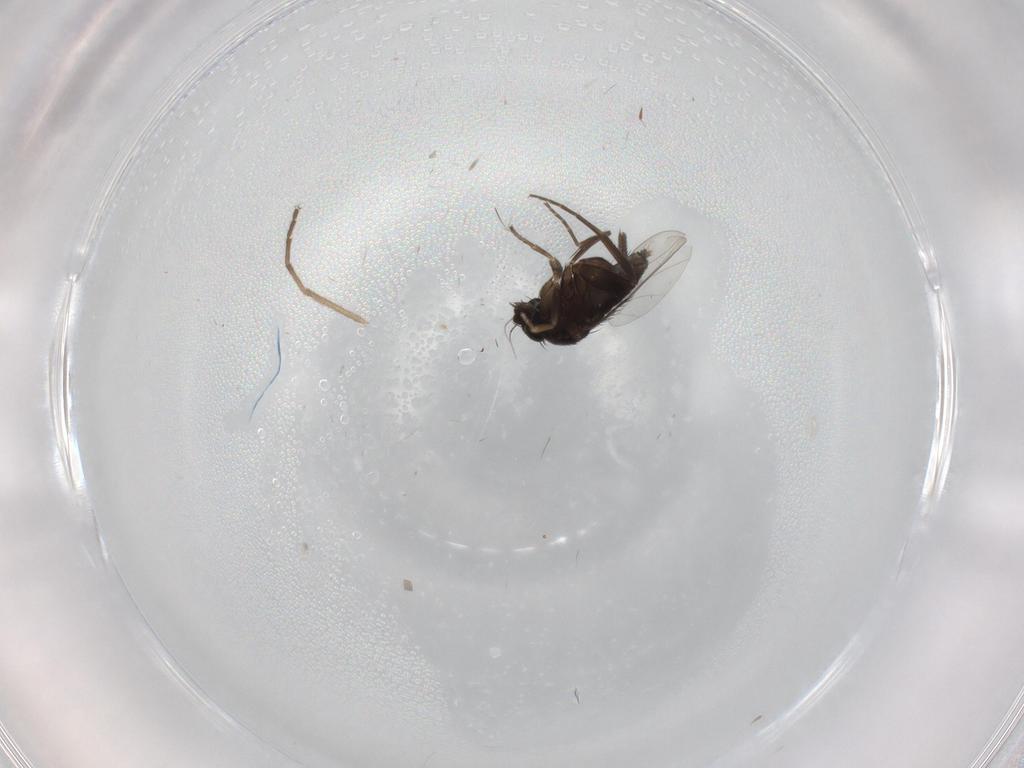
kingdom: Animalia
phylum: Arthropoda
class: Insecta
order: Diptera
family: Phoridae
